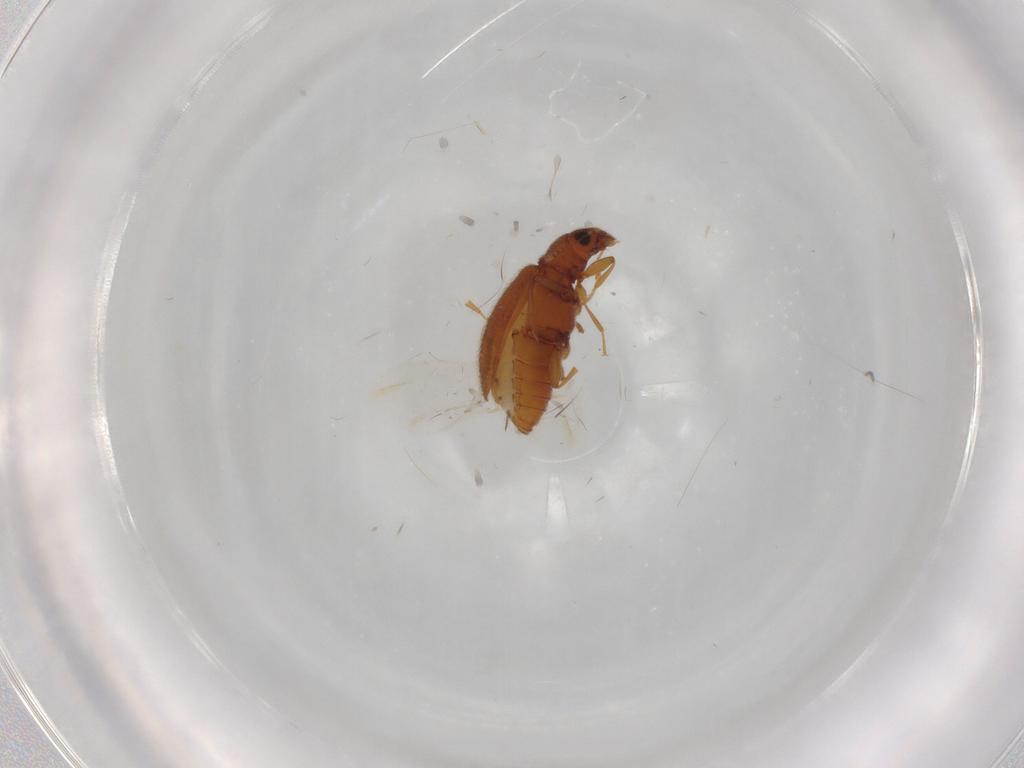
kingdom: Animalia
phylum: Arthropoda
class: Insecta
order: Coleoptera
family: Latridiidae
